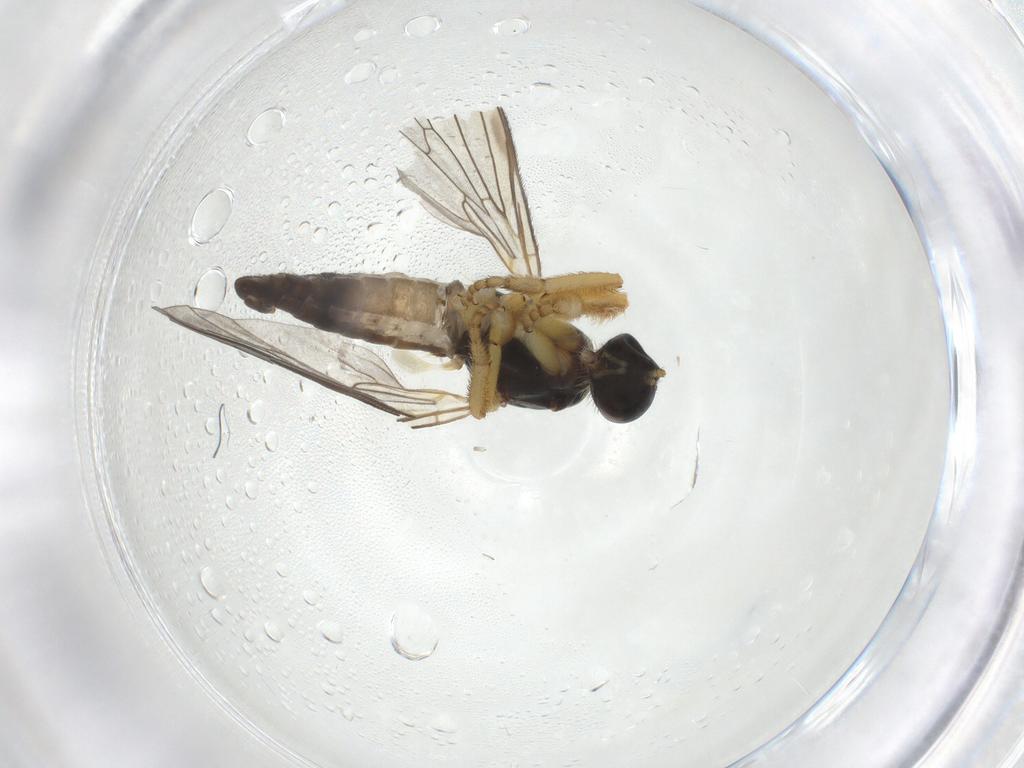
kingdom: Animalia
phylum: Arthropoda
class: Insecta
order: Diptera
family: Empididae
